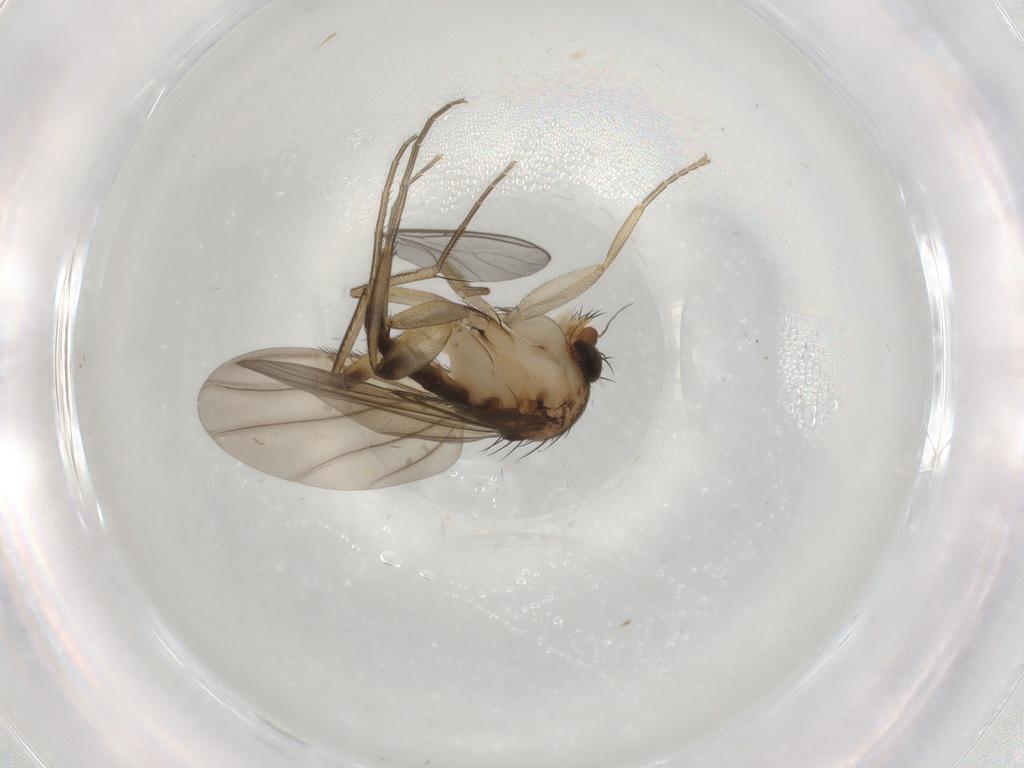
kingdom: Animalia
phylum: Arthropoda
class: Insecta
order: Diptera
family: Phoridae
